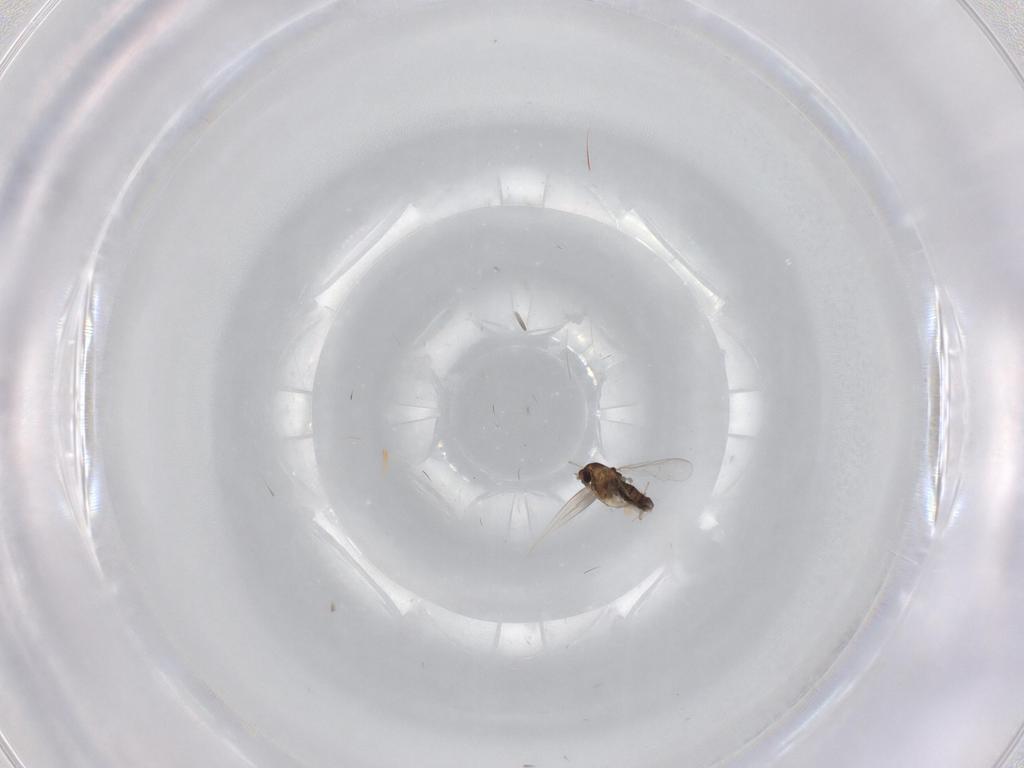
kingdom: Animalia
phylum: Arthropoda
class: Insecta
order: Diptera
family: Chironomidae
